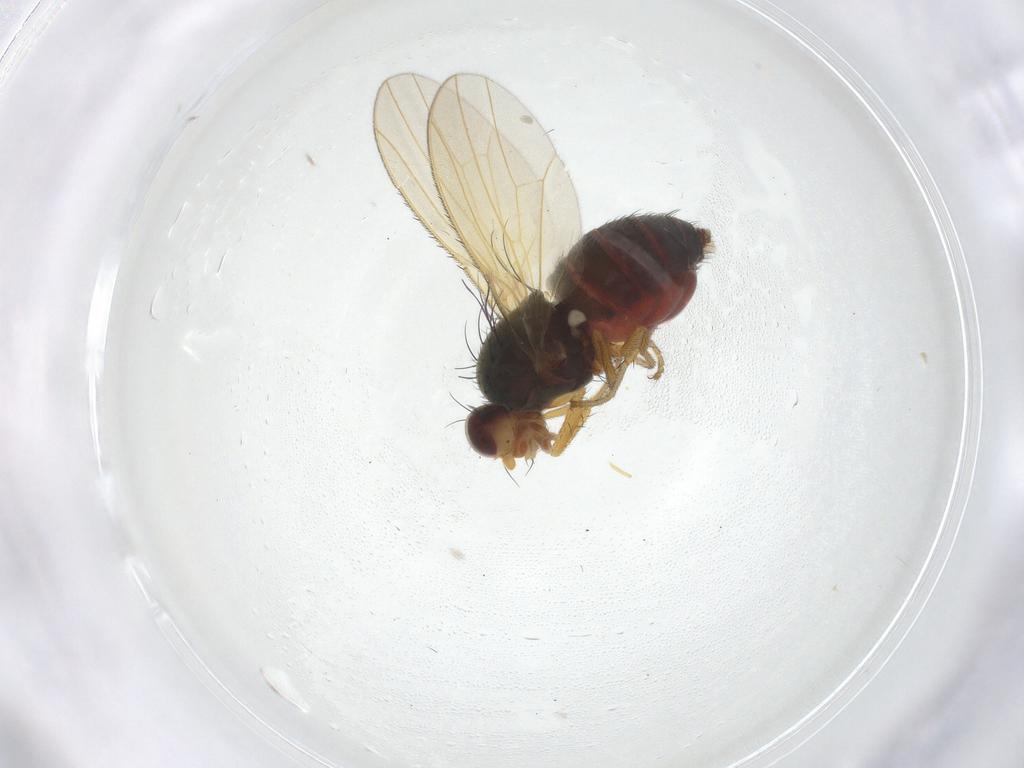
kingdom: Animalia
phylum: Arthropoda
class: Insecta
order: Diptera
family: Heleomyzidae
